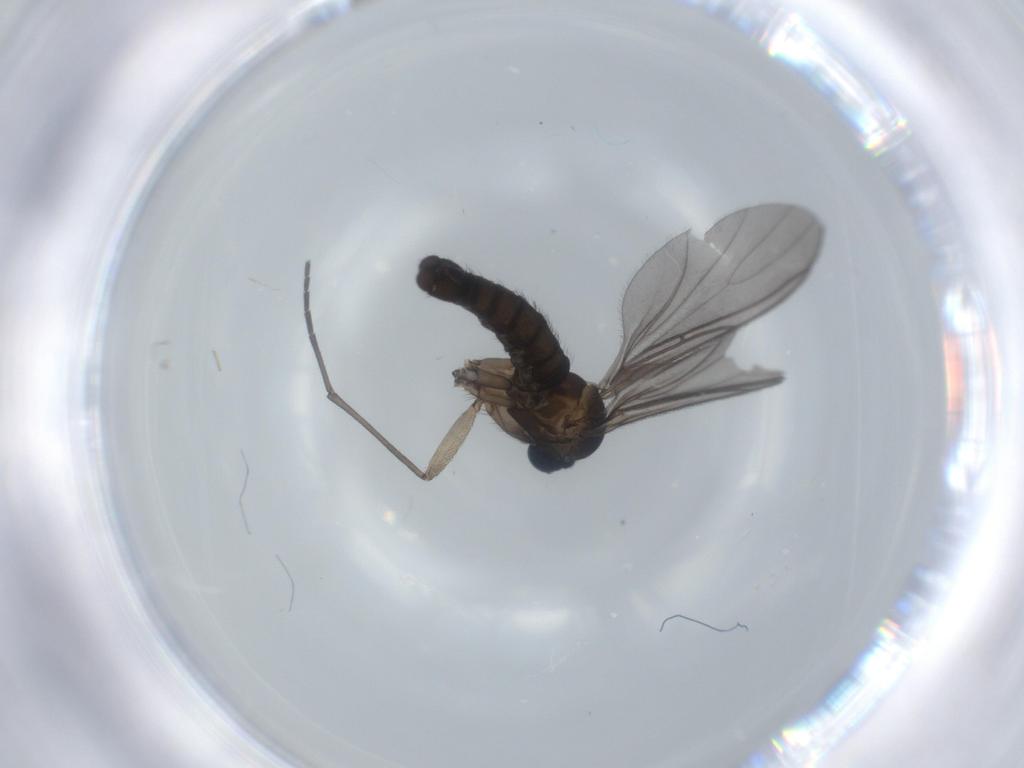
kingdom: Animalia
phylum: Arthropoda
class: Insecta
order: Diptera
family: Sciaridae
